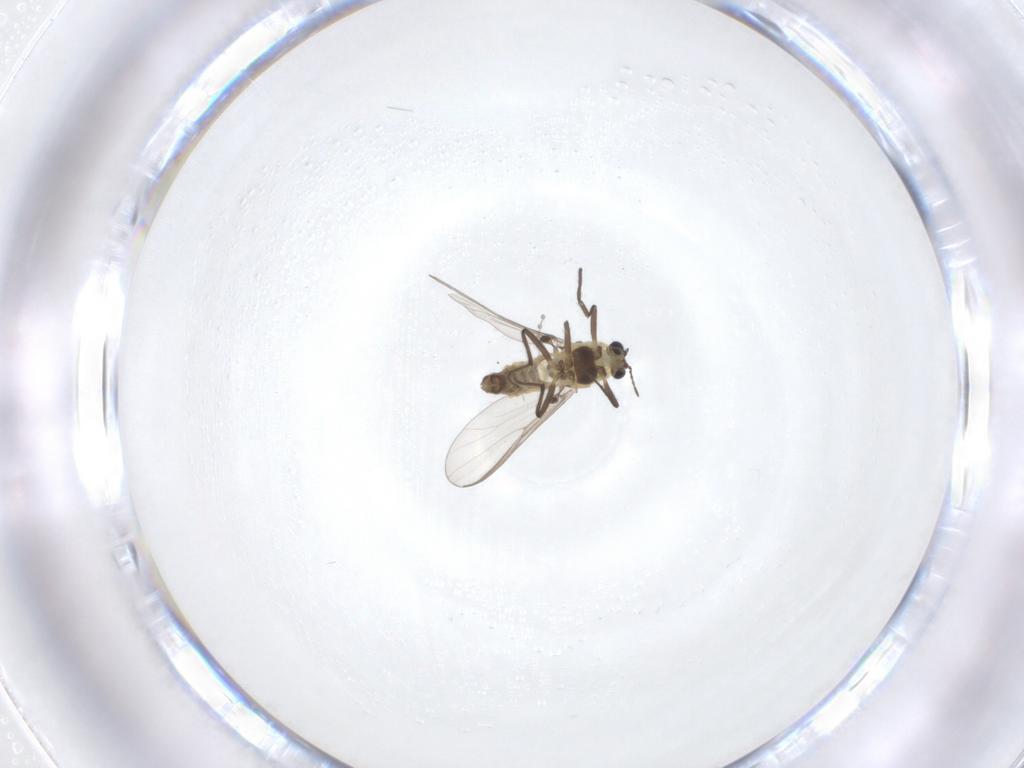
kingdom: Animalia
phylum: Arthropoda
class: Insecta
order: Diptera
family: Chironomidae
